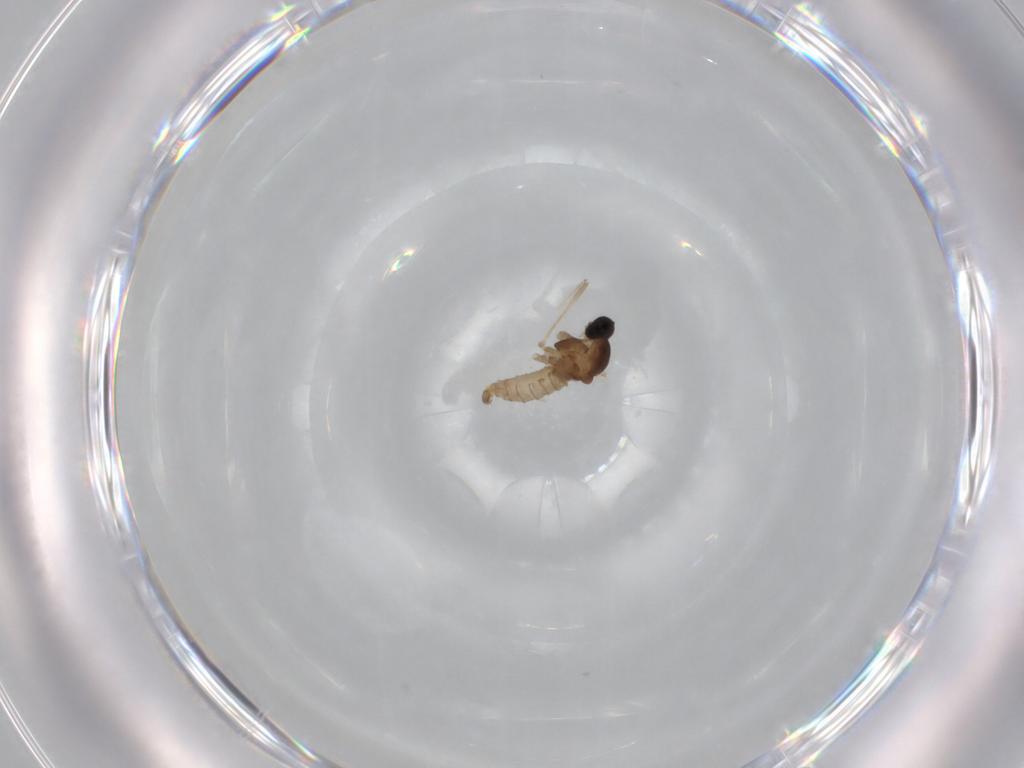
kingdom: Animalia
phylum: Arthropoda
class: Insecta
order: Diptera
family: Cecidomyiidae
